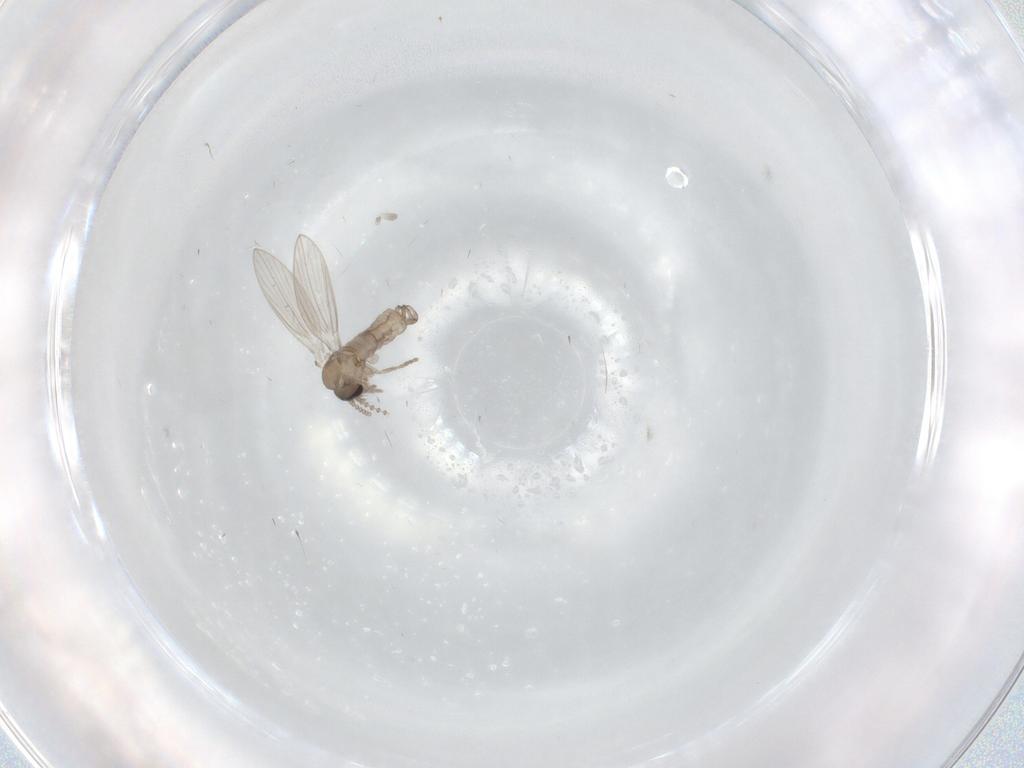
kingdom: Animalia
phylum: Arthropoda
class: Insecta
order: Diptera
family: Psychodidae
